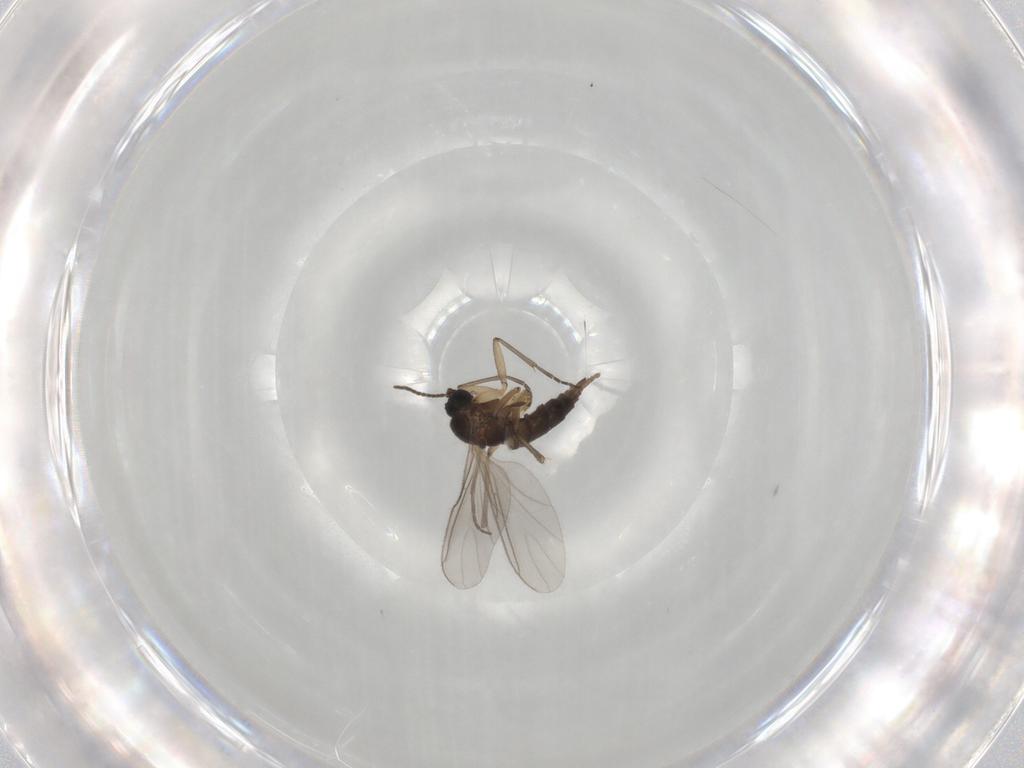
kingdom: Animalia
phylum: Arthropoda
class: Insecta
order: Diptera
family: Sciaridae
